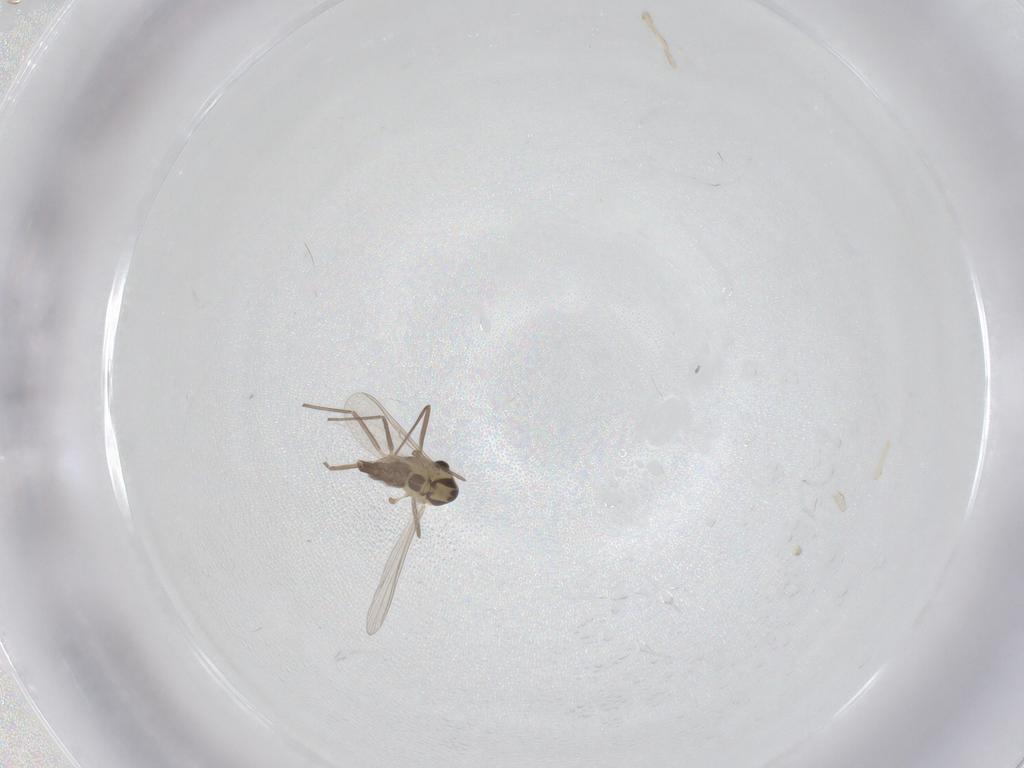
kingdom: Animalia
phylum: Arthropoda
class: Insecta
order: Diptera
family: Chironomidae
